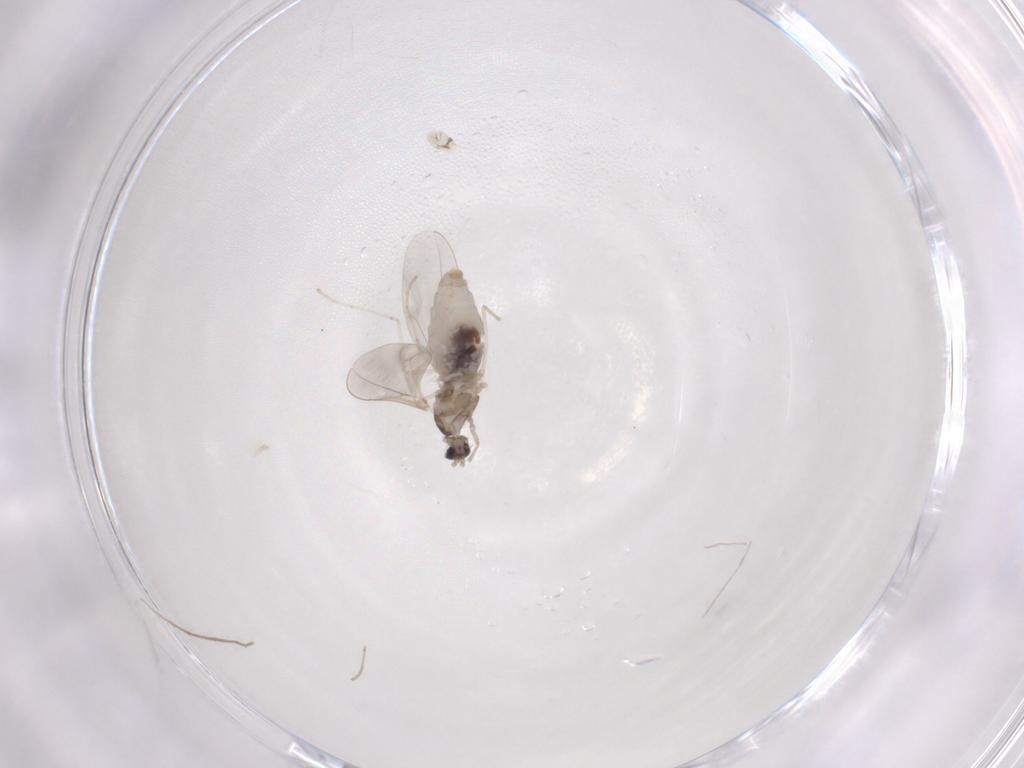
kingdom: Animalia
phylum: Arthropoda
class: Insecta
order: Diptera
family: Cecidomyiidae
